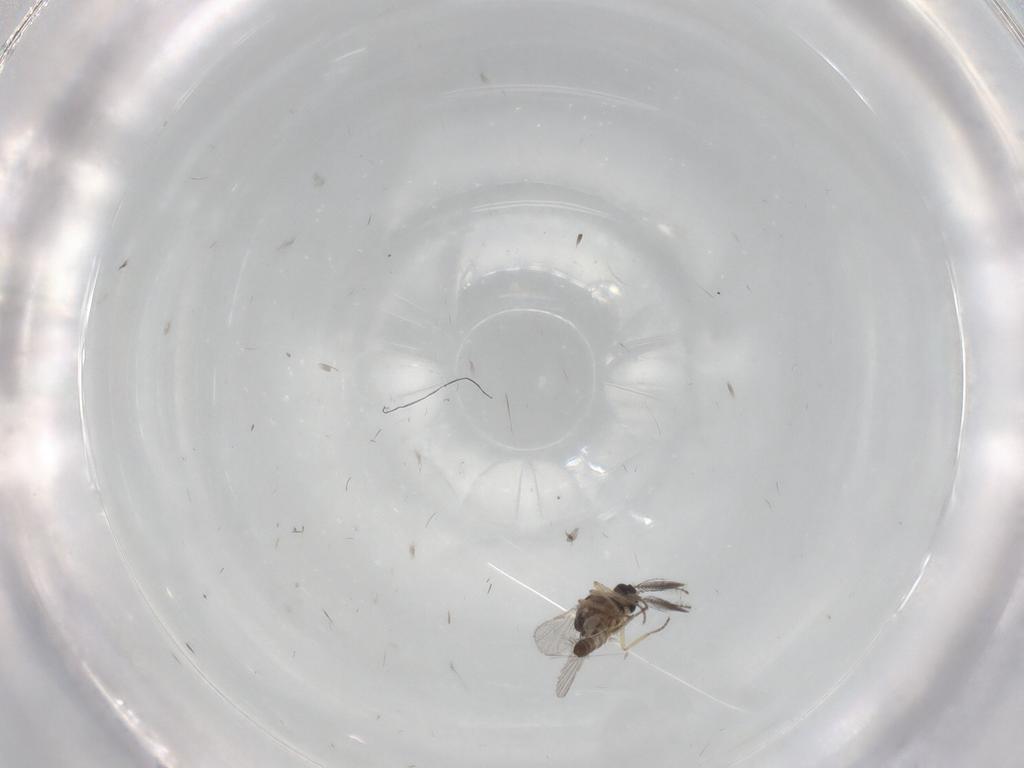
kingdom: Animalia
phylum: Arthropoda
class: Insecta
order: Diptera
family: Ceratopogonidae
